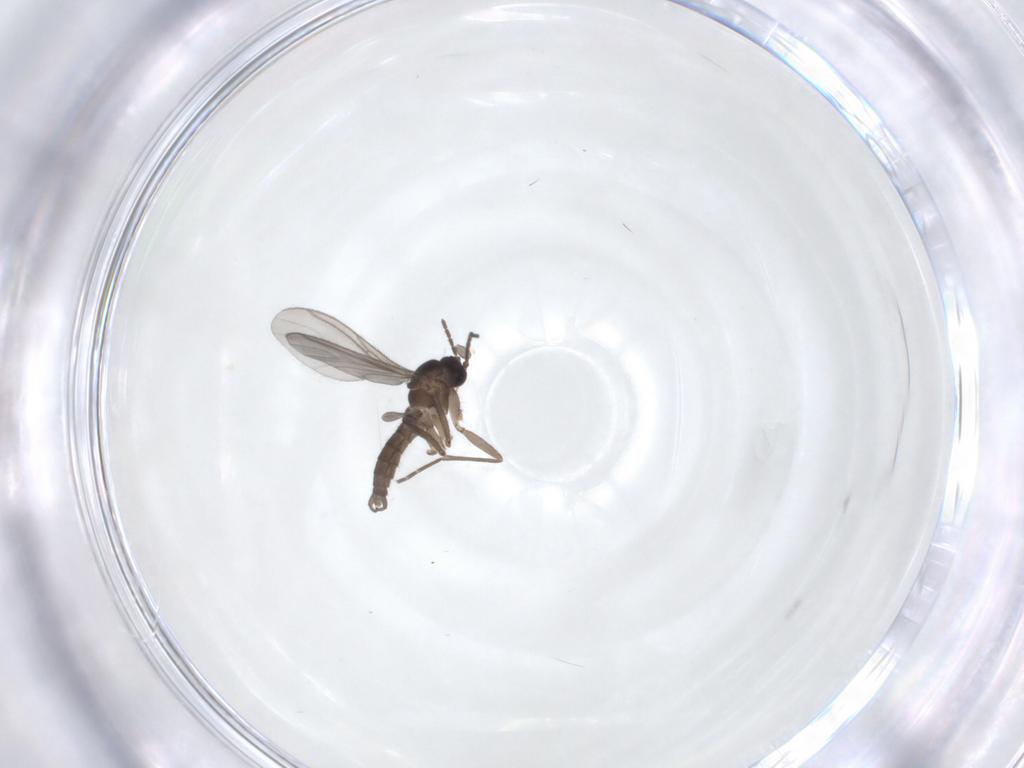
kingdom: Animalia
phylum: Arthropoda
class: Insecta
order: Diptera
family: Sciaridae
